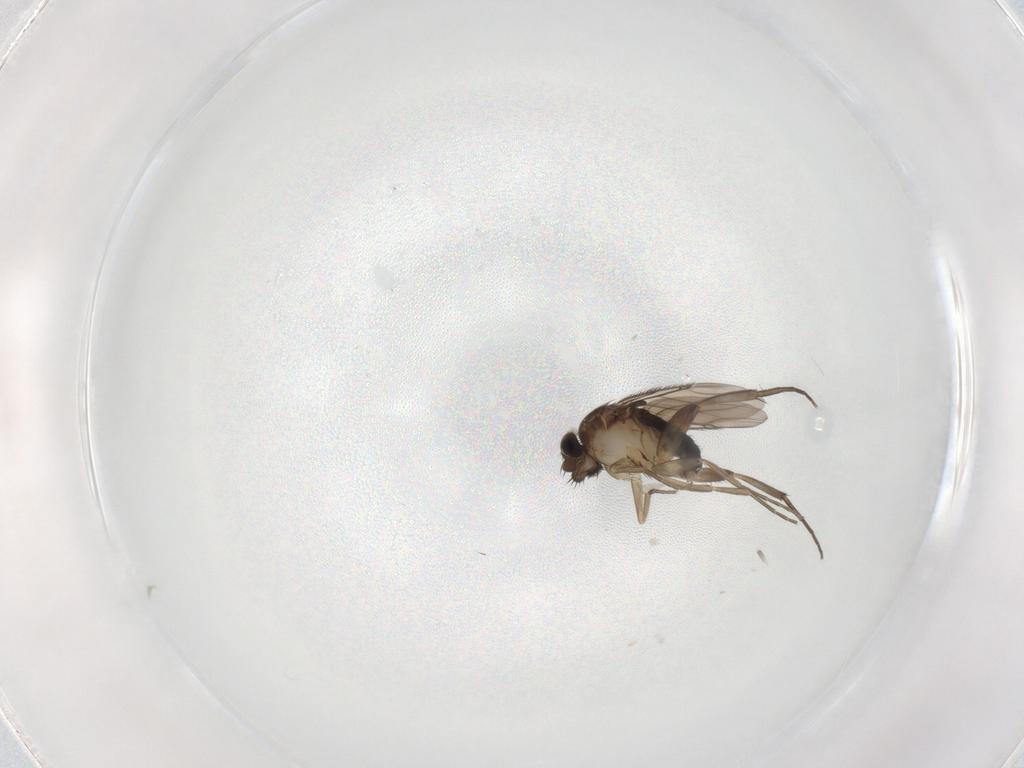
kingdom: Animalia
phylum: Arthropoda
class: Insecta
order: Diptera
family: Phoridae
